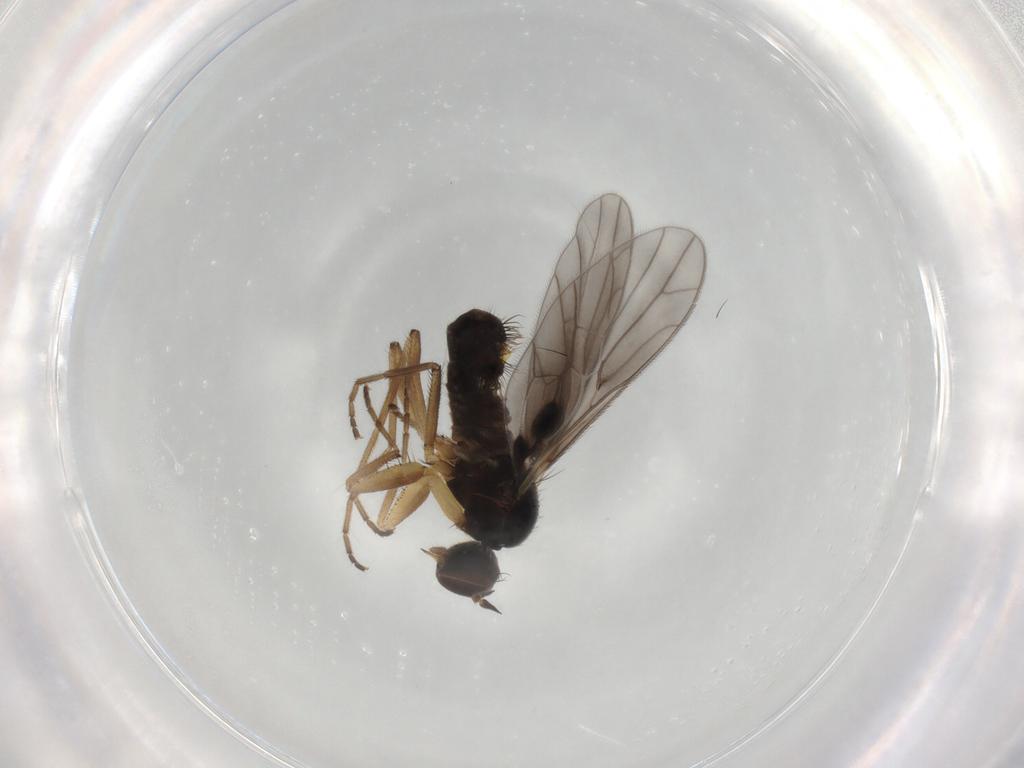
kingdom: Animalia
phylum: Arthropoda
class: Insecta
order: Diptera
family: Empididae
